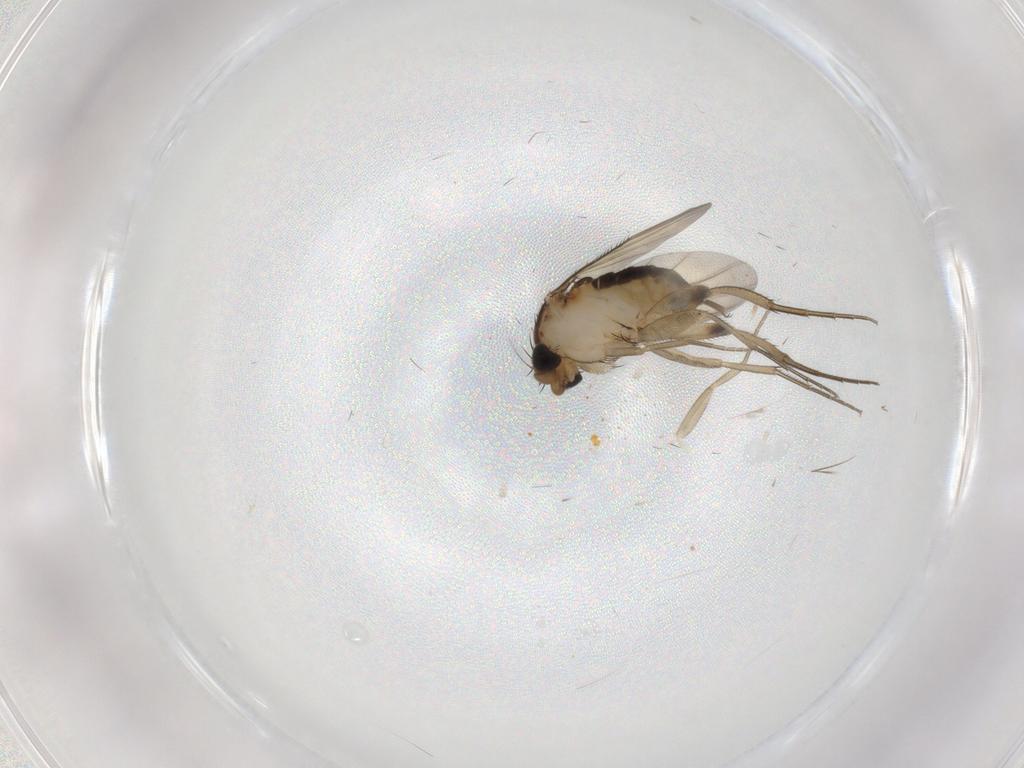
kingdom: Animalia
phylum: Arthropoda
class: Insecta
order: Diptera
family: Phoridae
